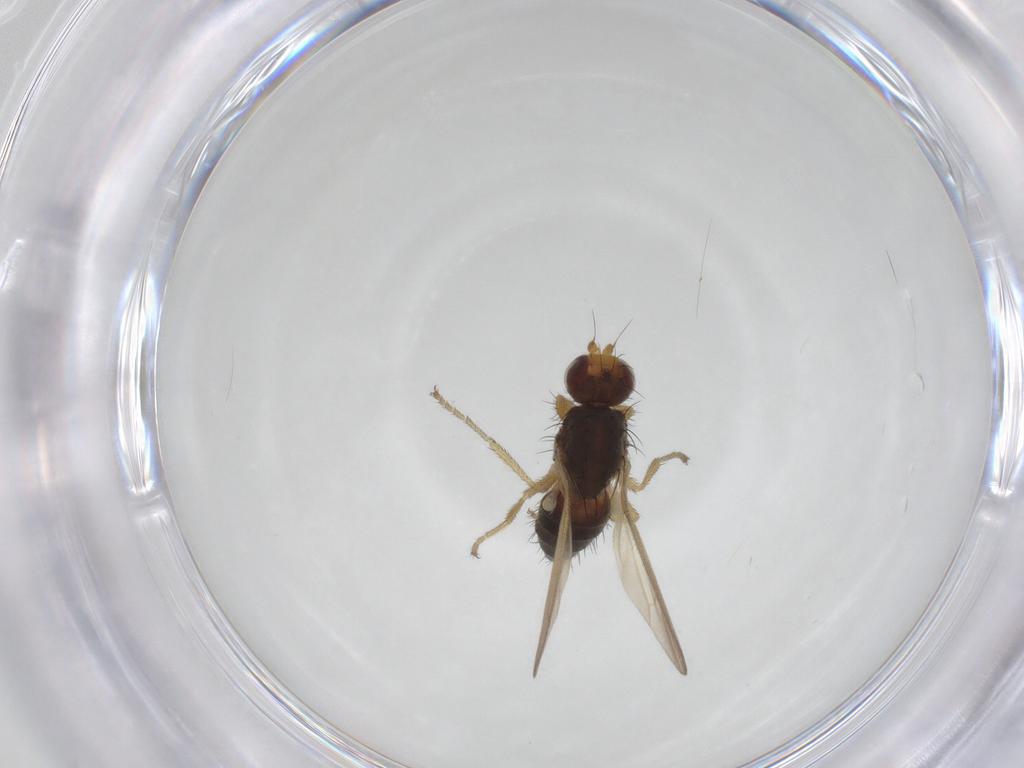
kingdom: Animalia
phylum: Arthropoda
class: Insecta
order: Diptera
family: Heleomyzidae
